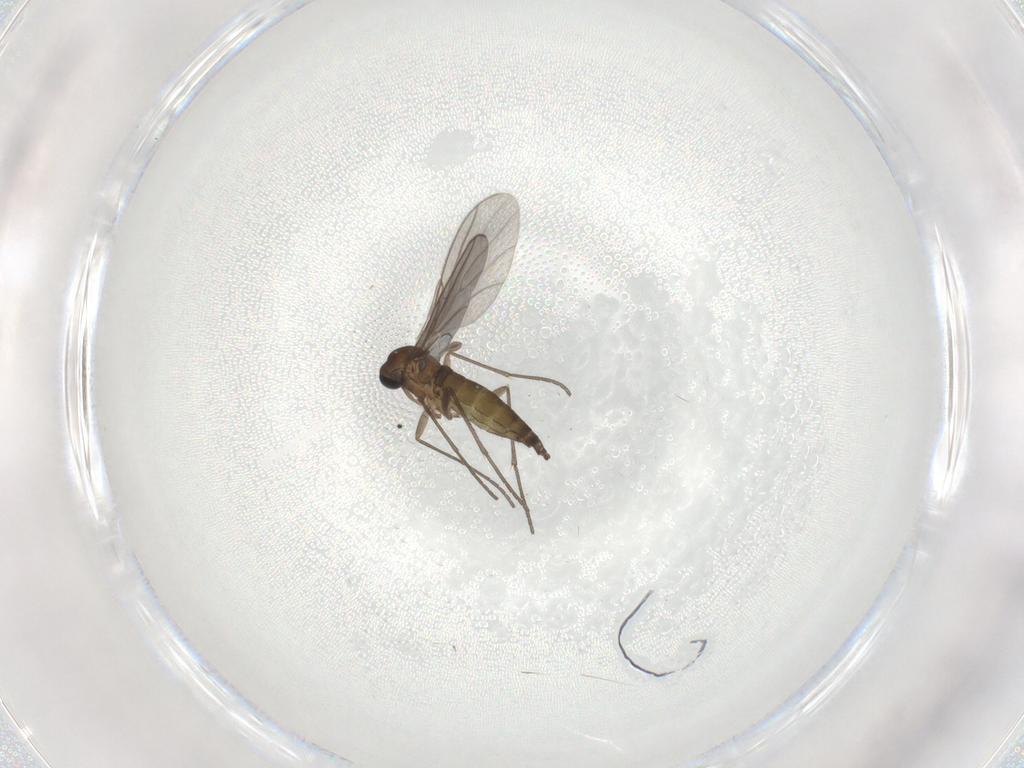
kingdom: Animalia
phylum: Arthropoda
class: Insecta
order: Diptera
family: Sciaridae
